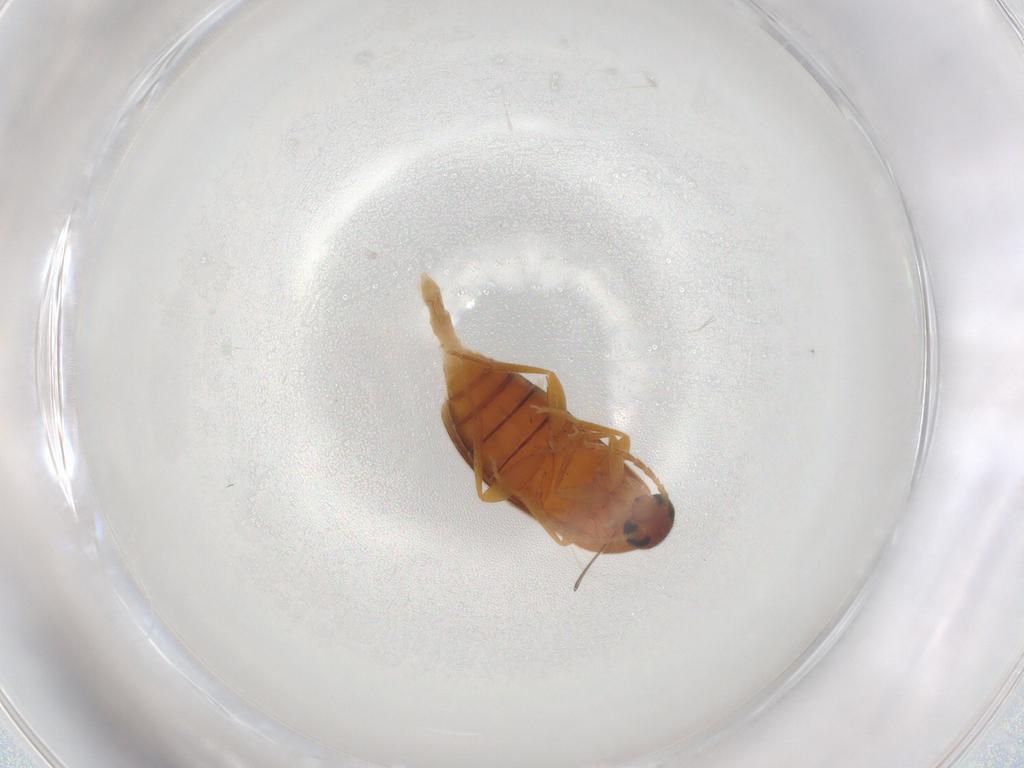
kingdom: Animalia
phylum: Arthropoda
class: Insecta
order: Coleoptera
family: Scraptiidae
